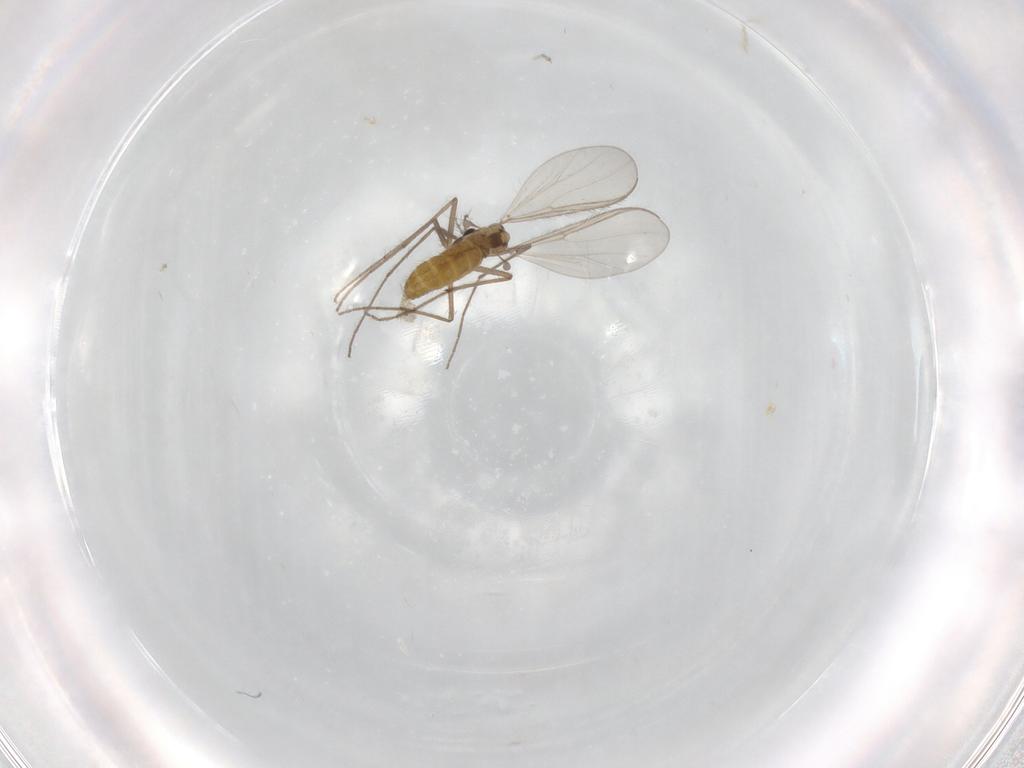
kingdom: Animalia
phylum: Arthropoda
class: Insecta
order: Diptera
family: Chironomidae
